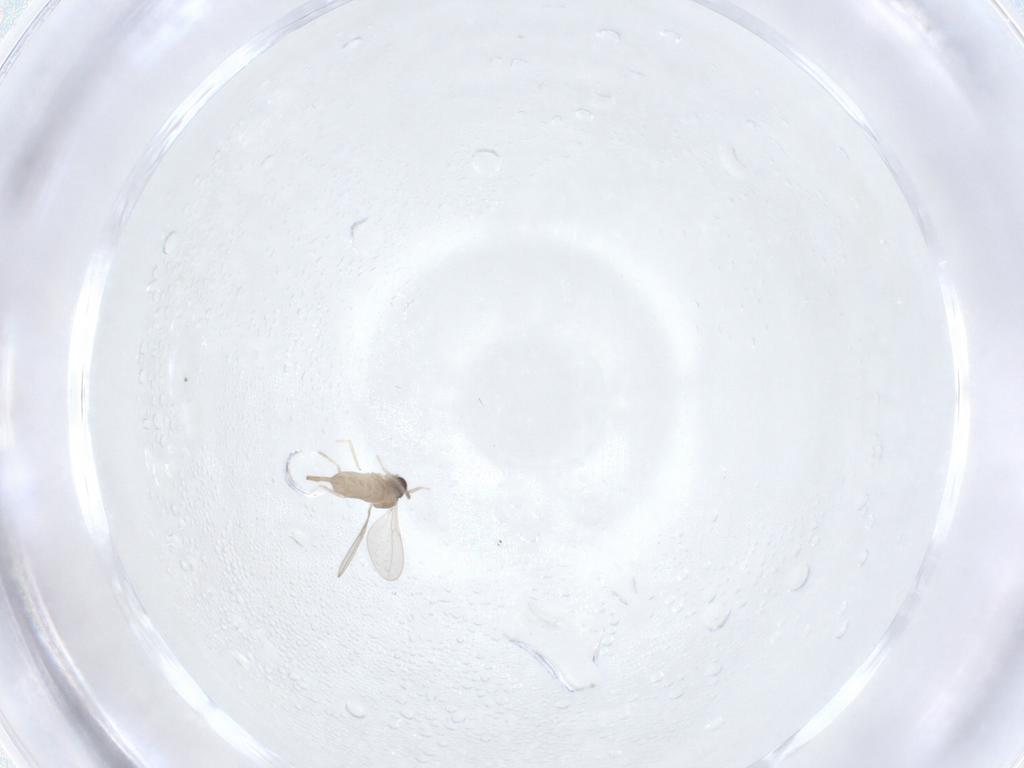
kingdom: Animalia
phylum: Arthropoda
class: Insecta
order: Diptera
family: Cecidomyiidae
